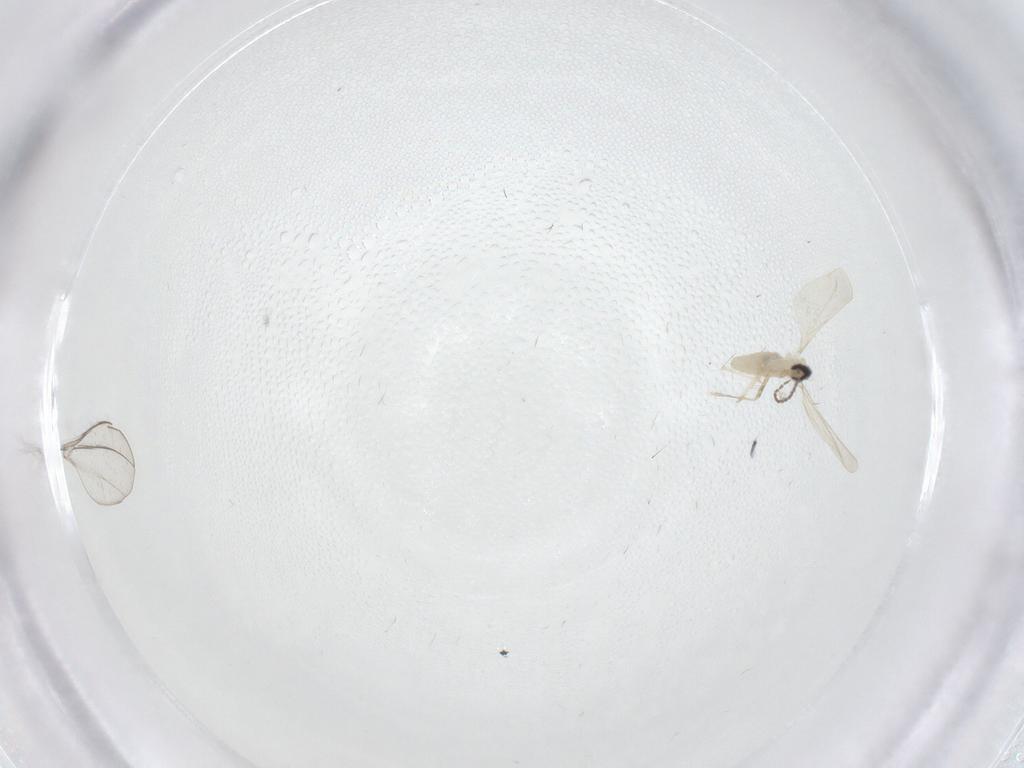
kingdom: Animalia
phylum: Arthropoda
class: Insecta
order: Diptera
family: Cecidomyiidae
